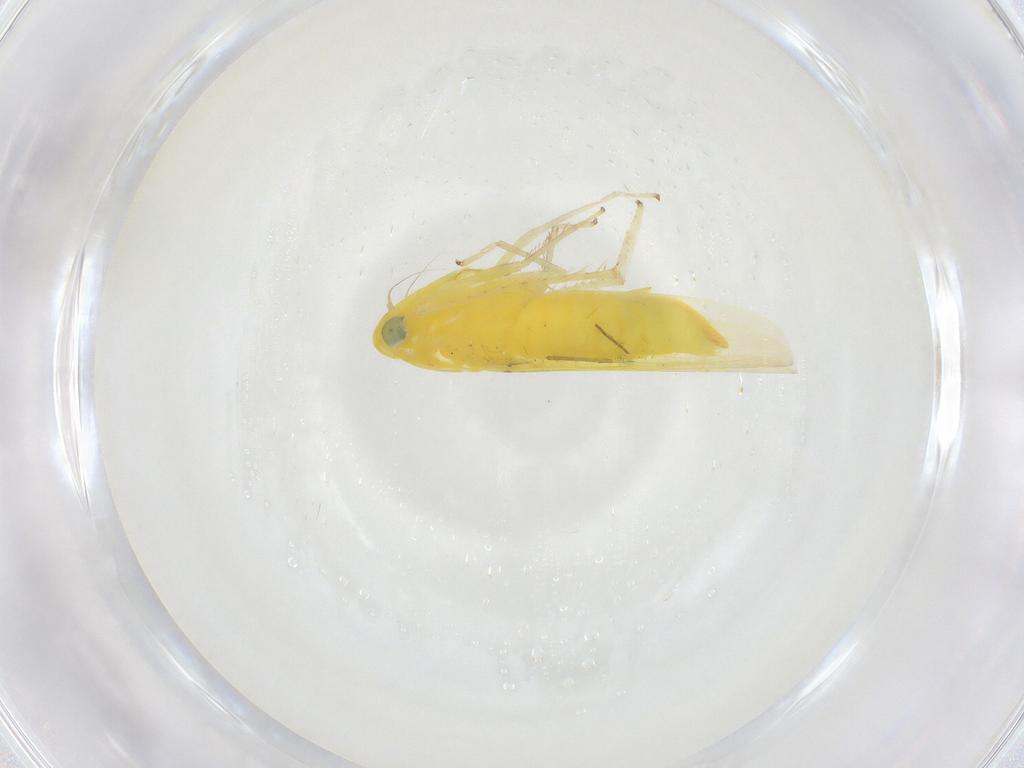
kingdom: Animalia
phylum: Arthropoda
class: Insecta
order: Hemiptera
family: Cicadellidae
